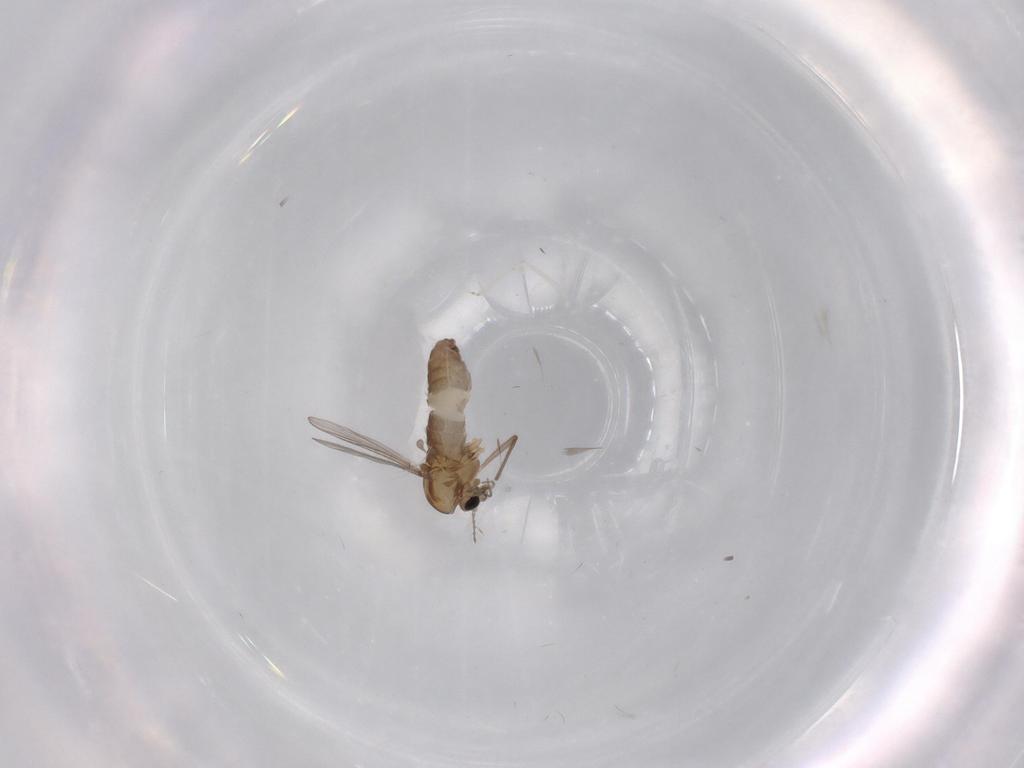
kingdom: Animalia
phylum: Arthropoda
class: Insecta
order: Diptera
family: Chironomidae
